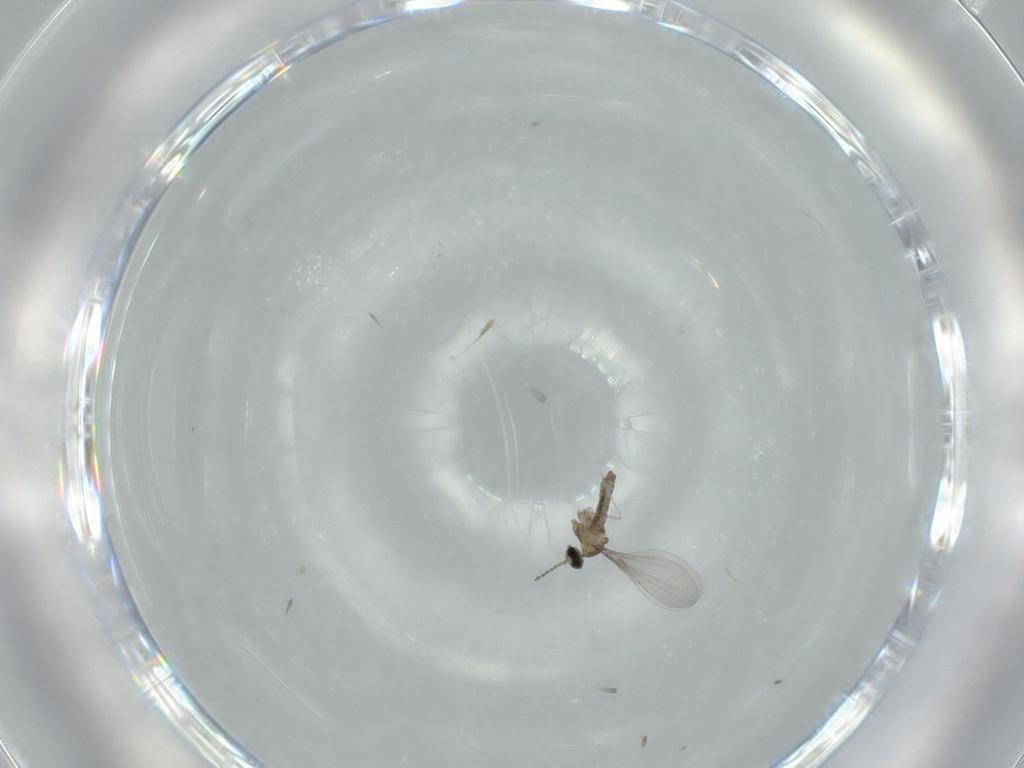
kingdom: Animalia
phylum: Arthropoda
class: Insecta
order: Diptera
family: Cecidomyiidae
